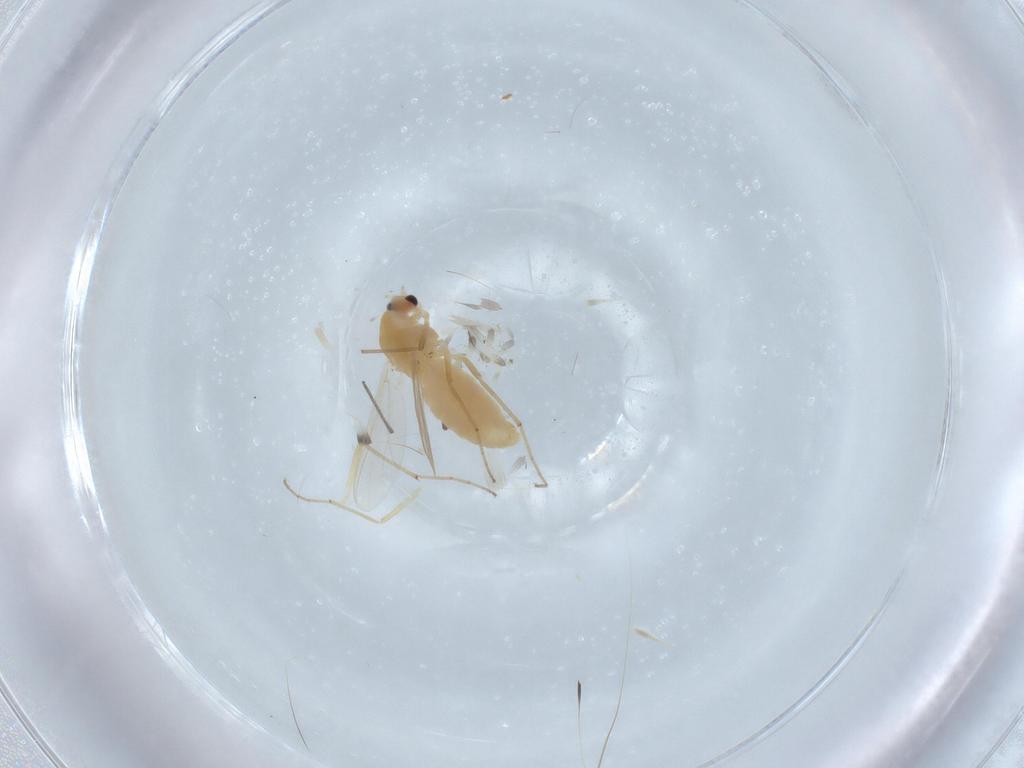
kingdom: Animalia
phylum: Arthropoda
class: Insecta
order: Diptera
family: Chironomidae
